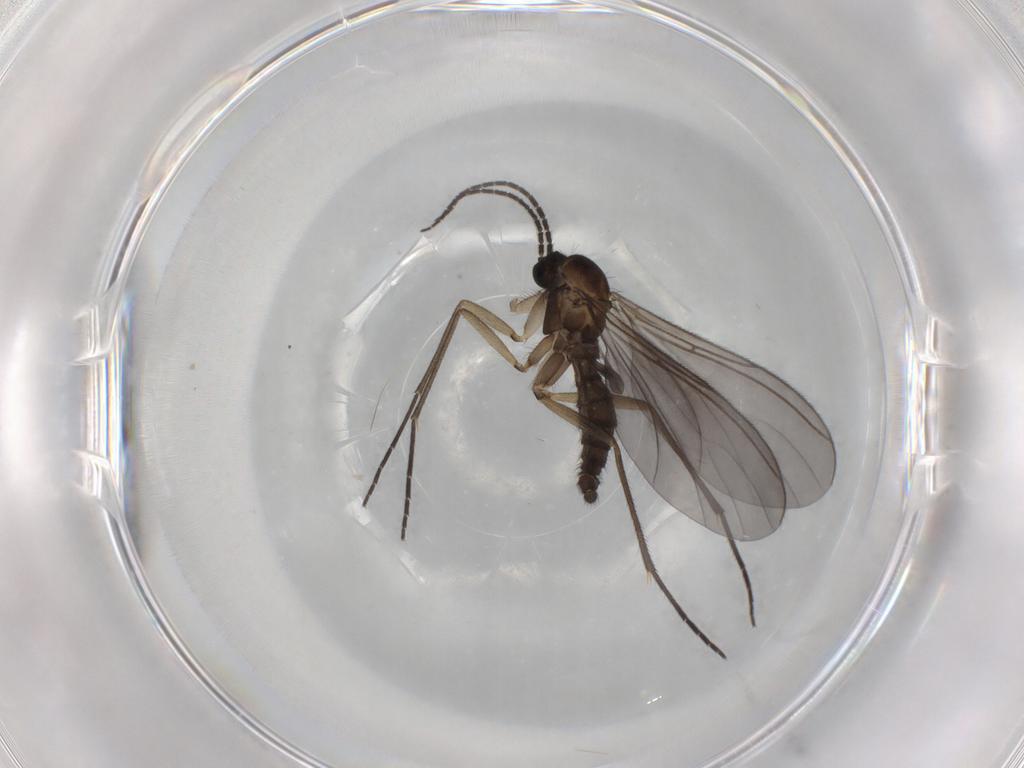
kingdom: Animalia
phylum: Arthropoda
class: Insecta
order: Diptera
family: Sciaridae
